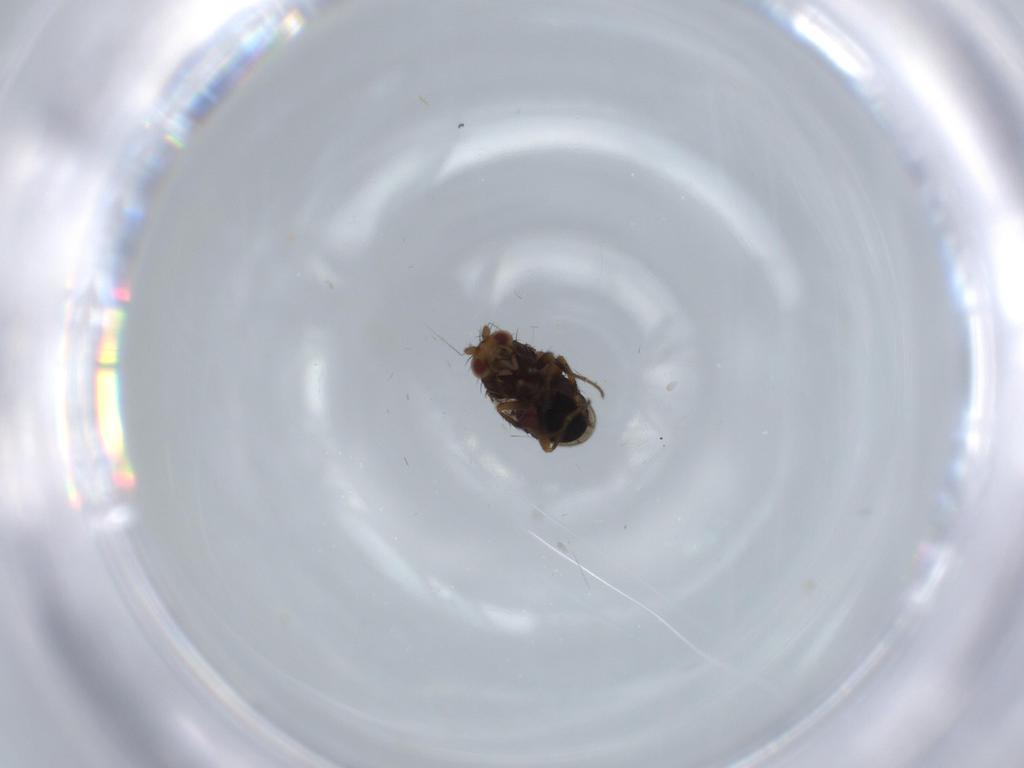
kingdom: Animalia
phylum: Arthropoda
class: Insecta
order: Diptera
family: Sphaeroceridae
